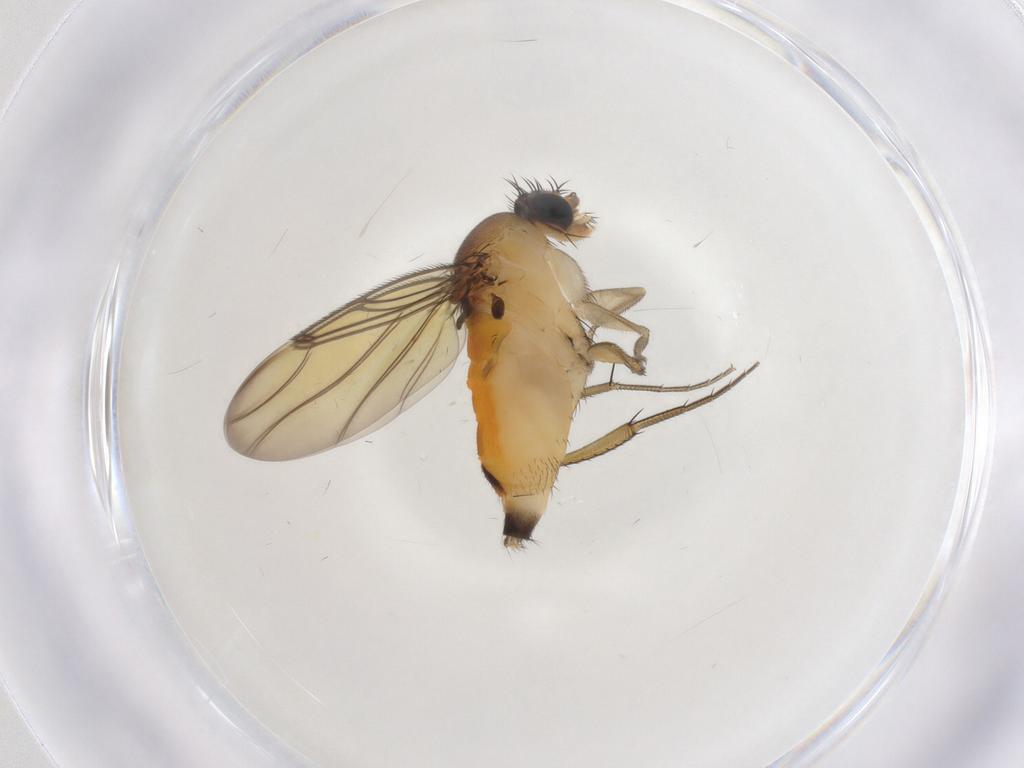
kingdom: Animalia
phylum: Arthropoda
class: Insecta
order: Diptera
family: Phoridae
